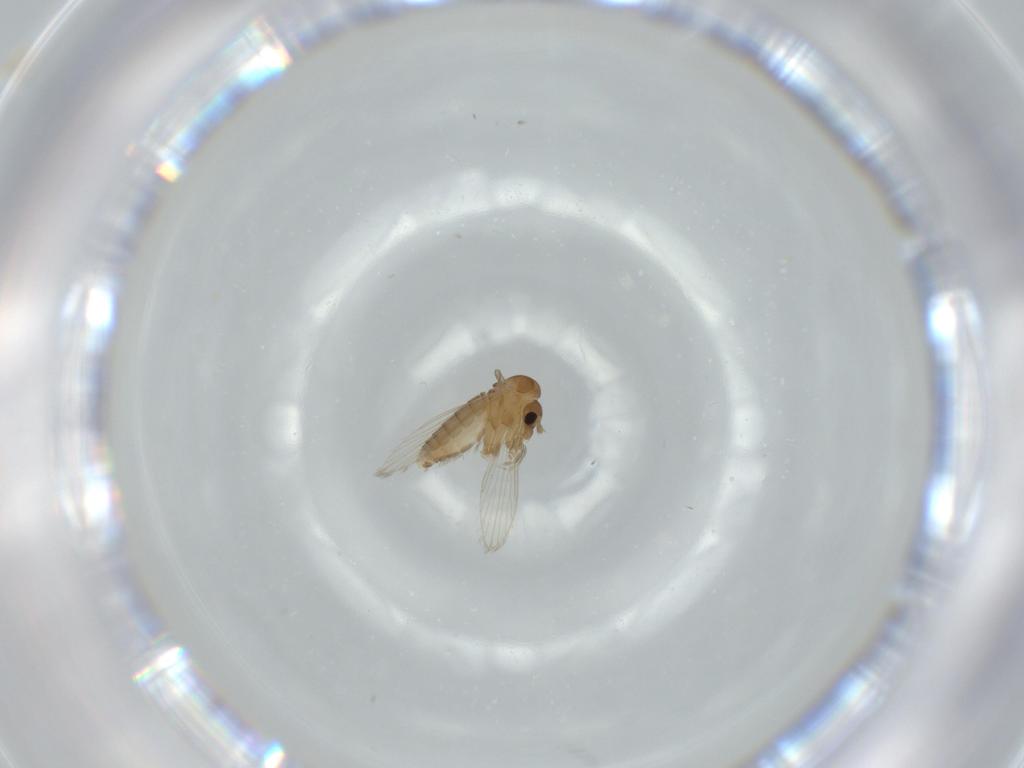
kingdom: Animalia
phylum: Arthropoda
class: Insecta
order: Diptera
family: Psychodidae
